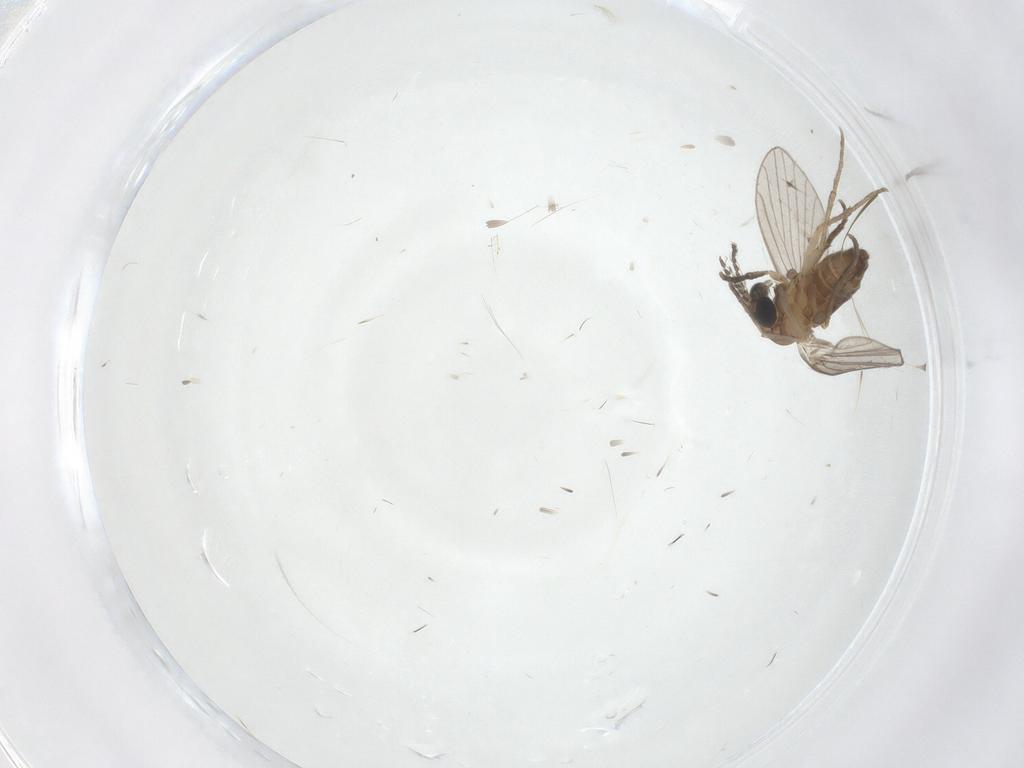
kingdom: Animalia
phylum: Arthropoda
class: Insecta
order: Diptera
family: Cecidomyiidae
